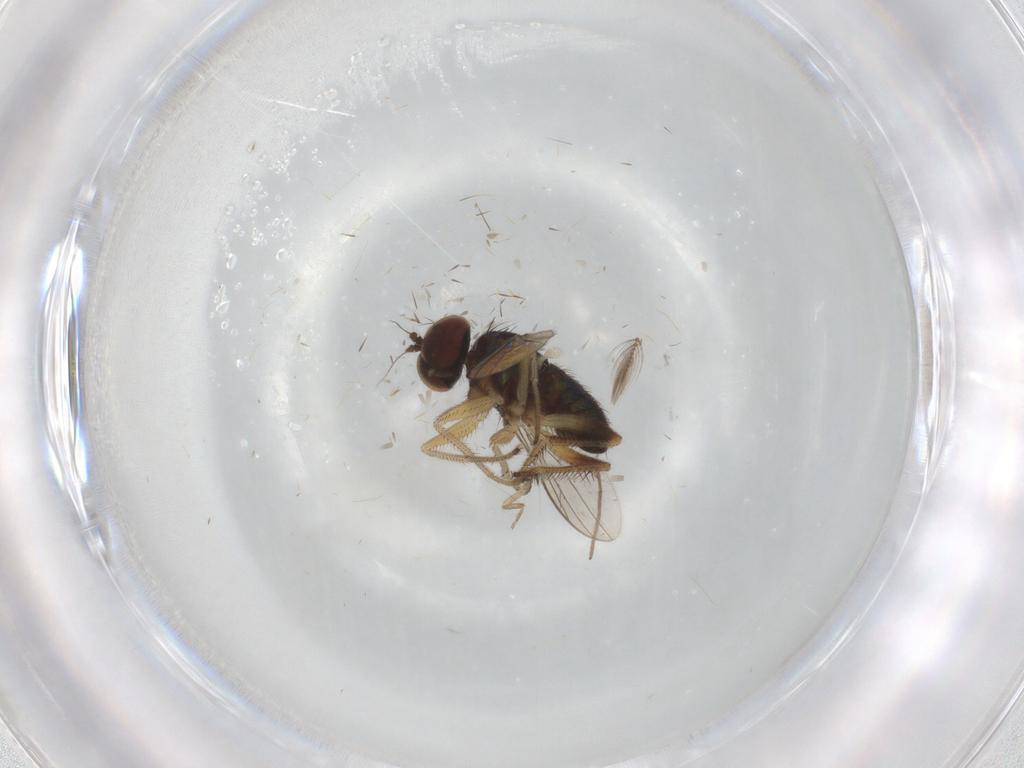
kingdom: Animalia
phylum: Arthropoda
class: Insecta
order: Diptera
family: Ceratopogonidae
